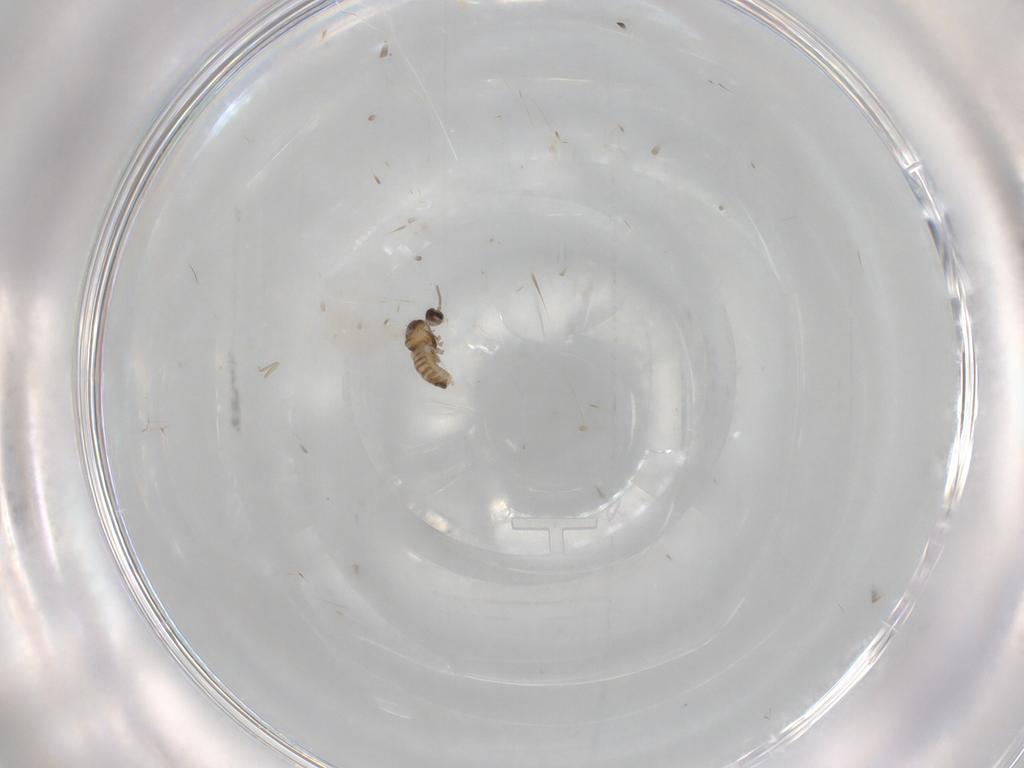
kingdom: Animalia
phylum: Arthropoda
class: Insecta
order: Diptera
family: Cecidomyiidae
